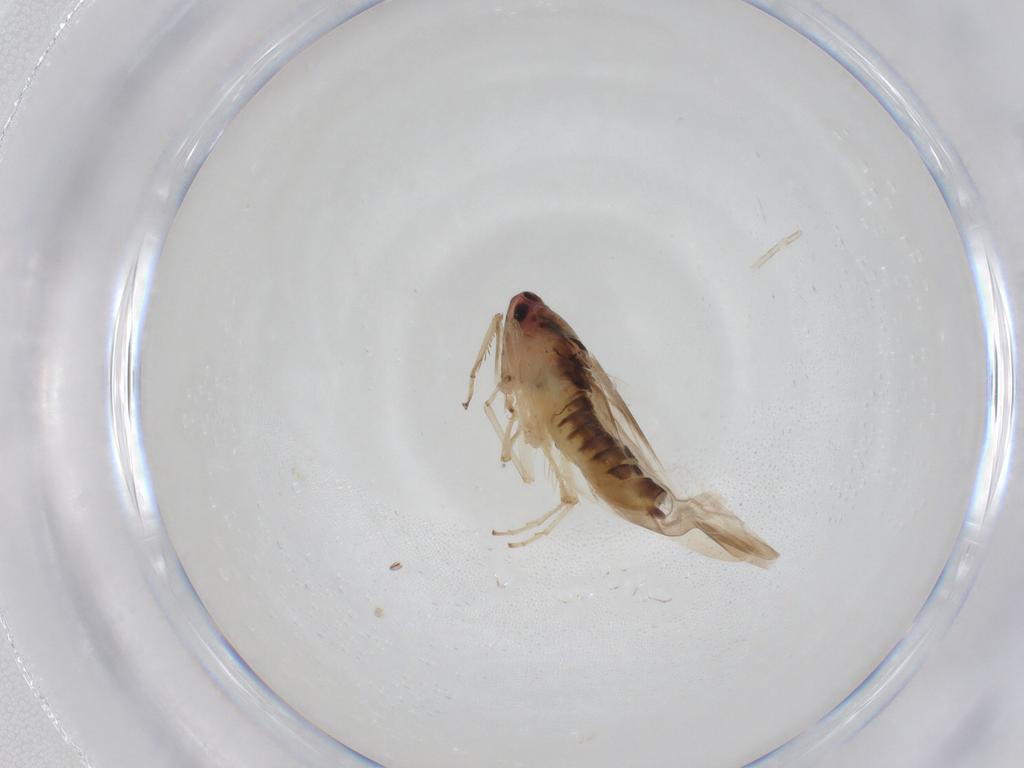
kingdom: Animalia
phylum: Arthropoda
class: Insecta
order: Hemiptera
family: Cicadellidae
